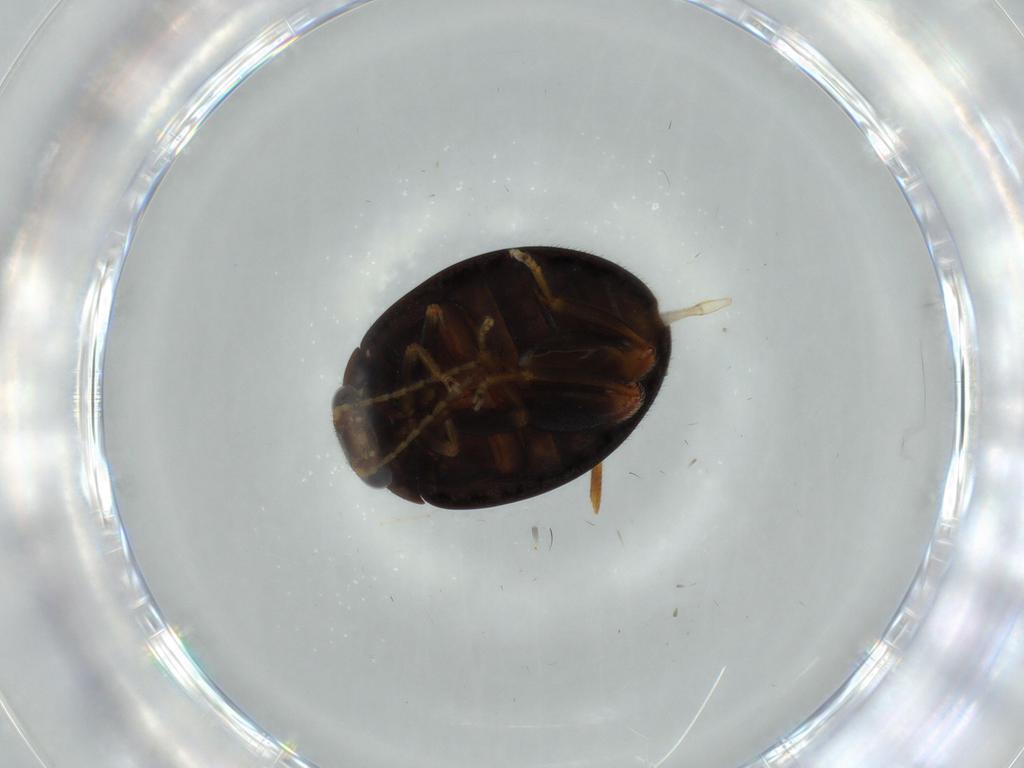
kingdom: Animalia
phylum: Arthropoda
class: Insecta
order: Coleoptera
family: Scirtidae
